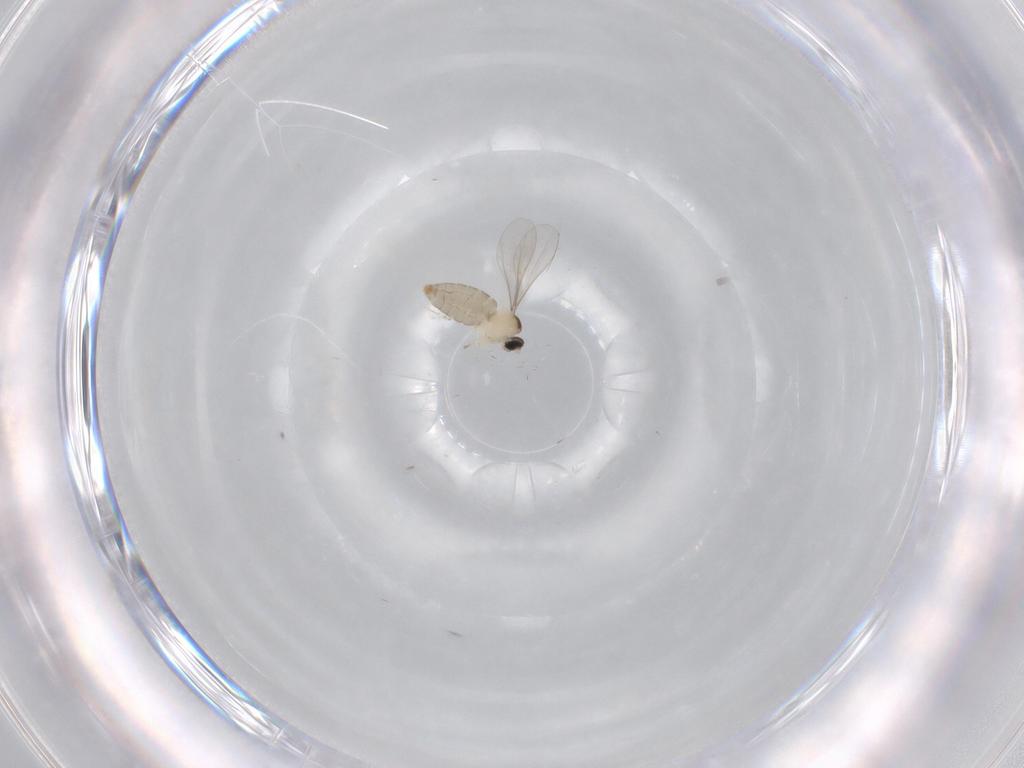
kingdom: Animalia
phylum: Arthropoda
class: Insecta
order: Diptera
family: Cecidomyiidae
